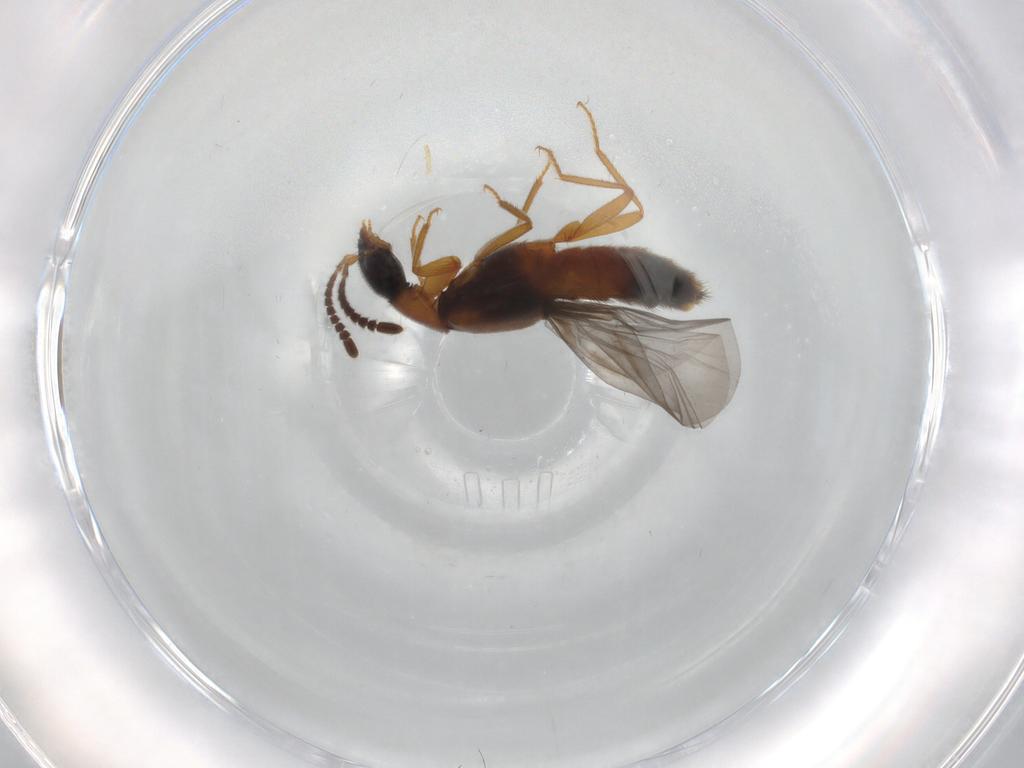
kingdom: Animalia
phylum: Arthropoda
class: Insecta
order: Coleoptera
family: Staphylinidae
